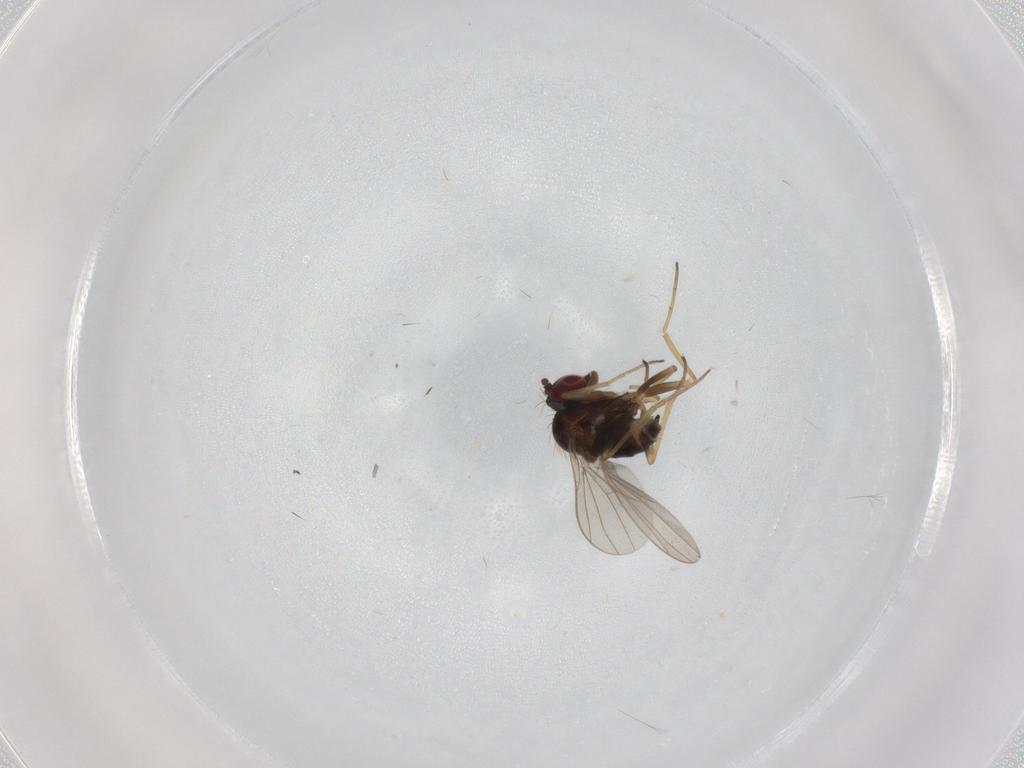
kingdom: Animalia
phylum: Arthropoda
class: Insecta
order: Diptera
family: Dolichopodidae
